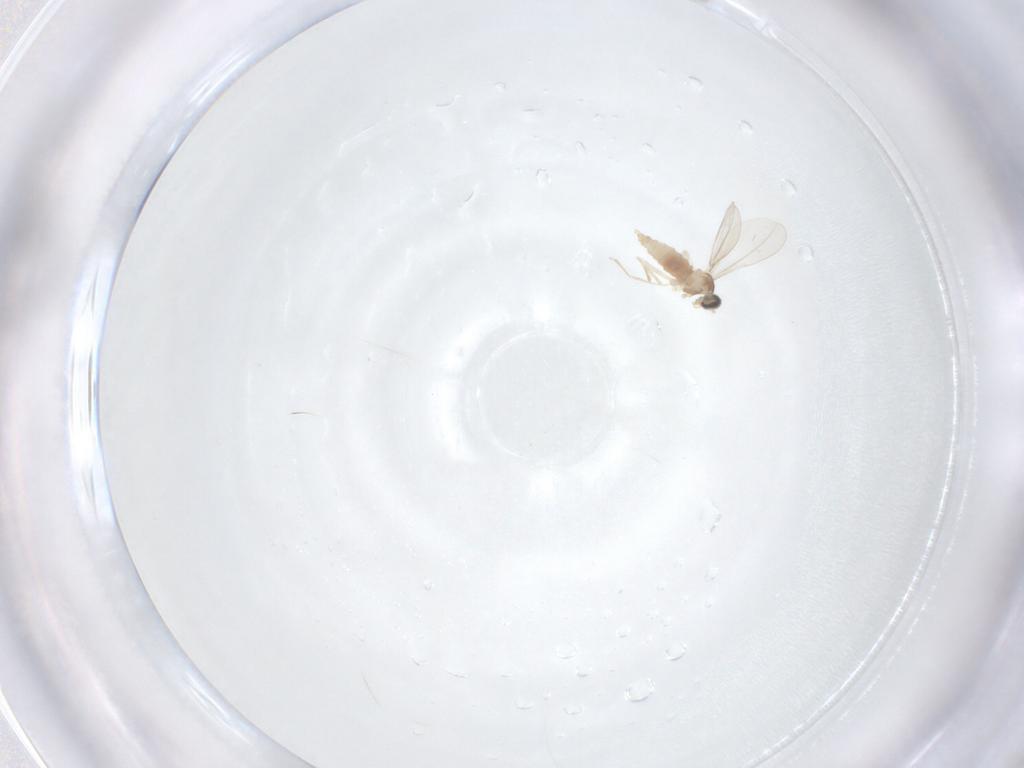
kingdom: Animalia
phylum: Arthropoda
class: Insecta
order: Diptera
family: Cecidomyiidae
